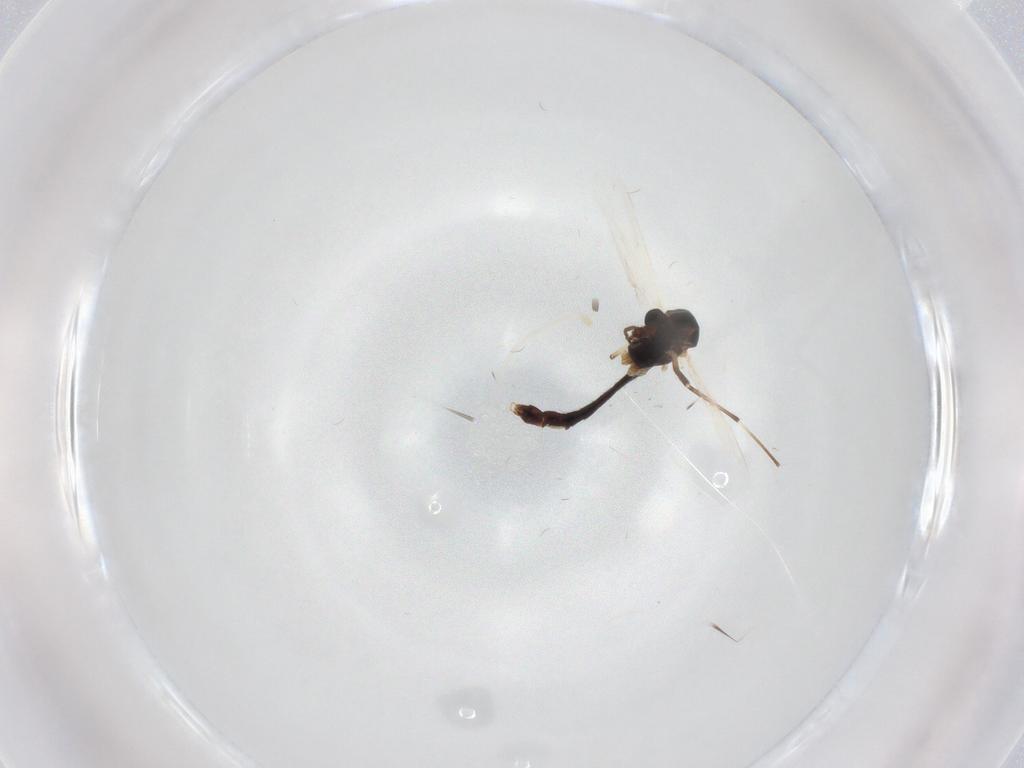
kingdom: Animalia
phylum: Arthropoda
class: Insecta
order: Diptera
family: Chironomidae
